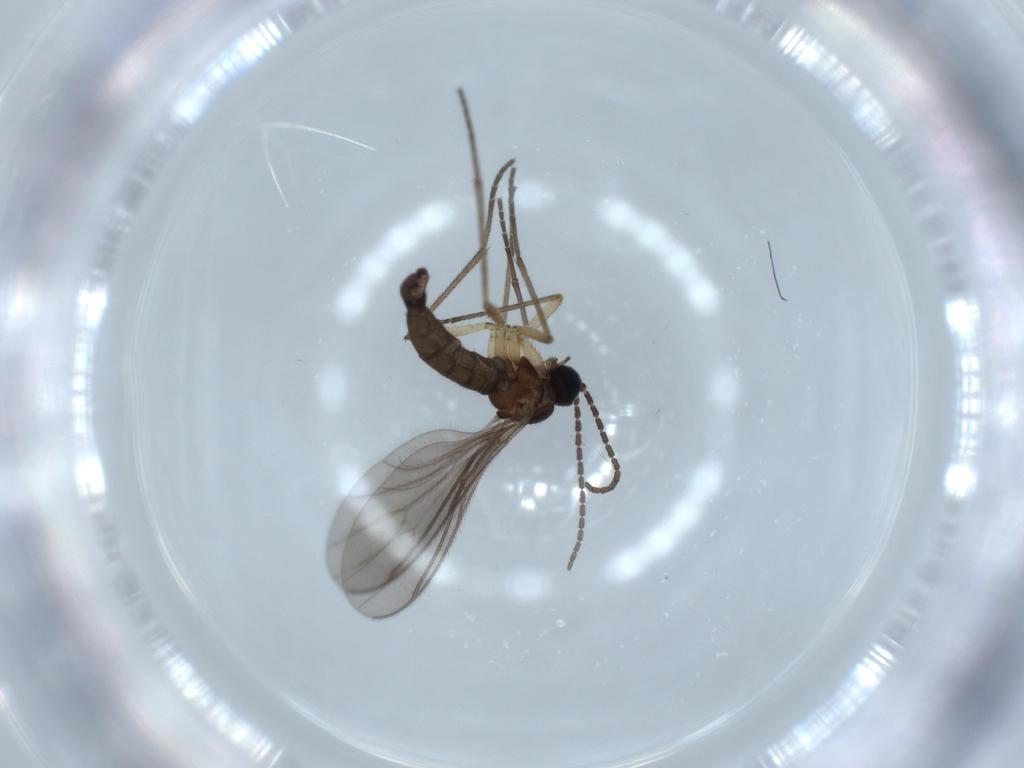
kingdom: Animalia
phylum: Arthropoda
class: Insecta
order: Diptera
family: Sciaridae
